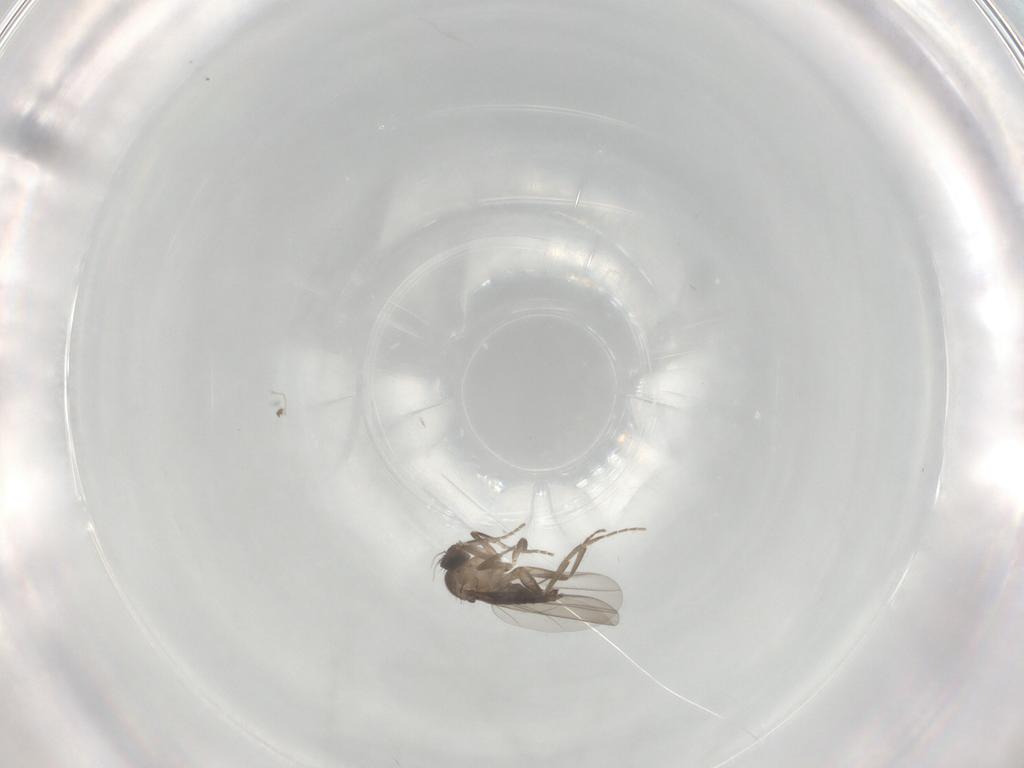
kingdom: Animalia
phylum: Arthropoda
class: Insecta
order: Diptera
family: Phoridae
